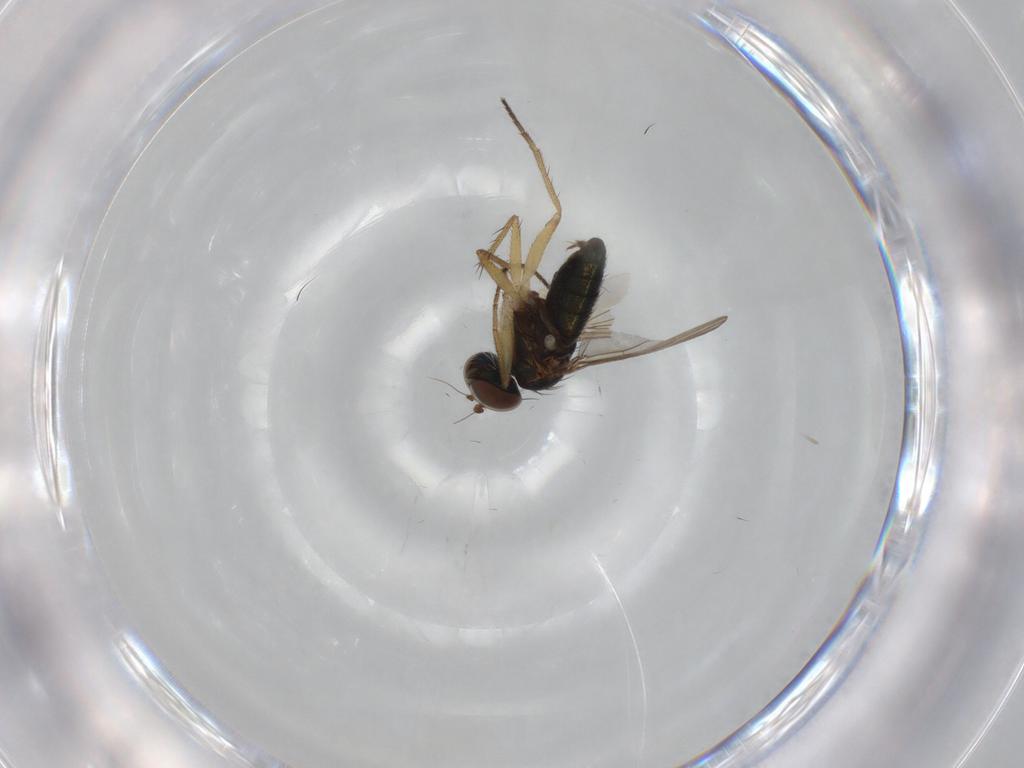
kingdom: Animalia
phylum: Arthropoda
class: Insecta
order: Diptera
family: Dolichopodidae
